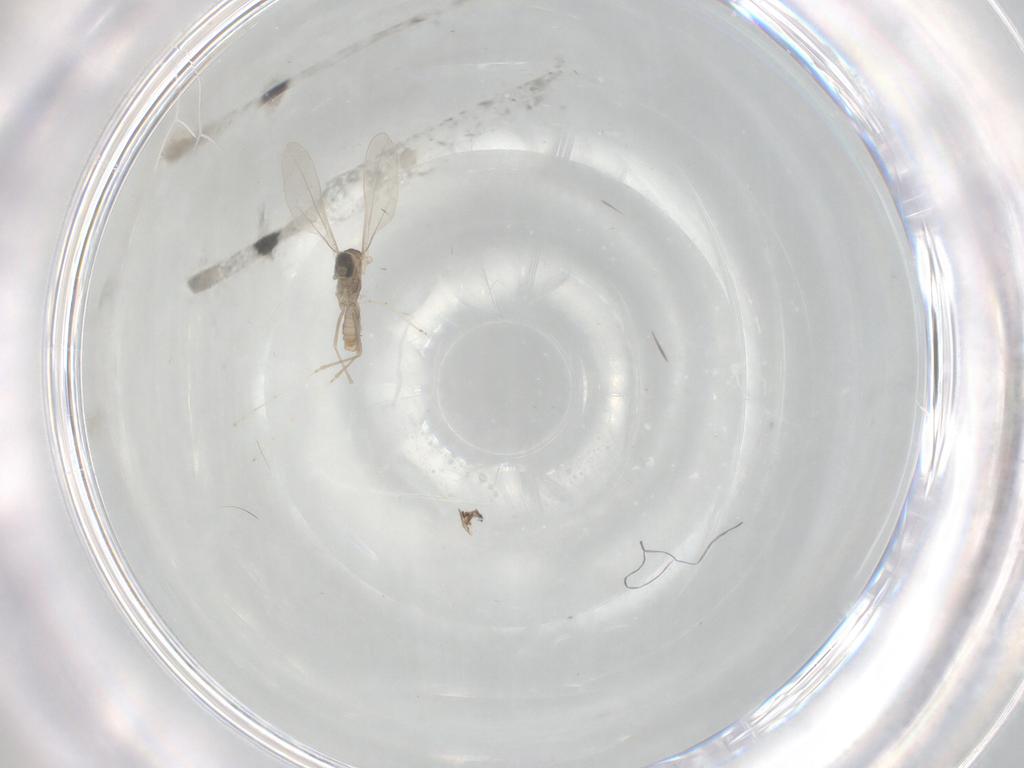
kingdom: Animalia
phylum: Arthropoda
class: Insecta
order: Diptera
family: Cecidomyiidae
